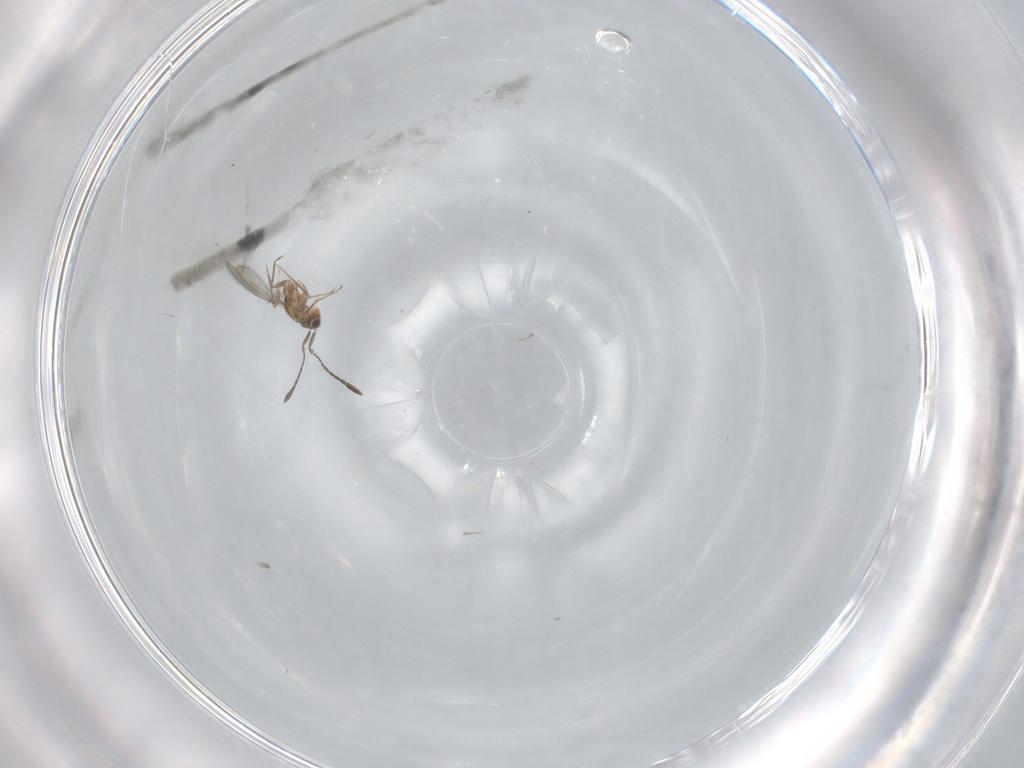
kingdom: Animalia
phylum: Arthropoda
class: Insecta
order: Hymenoptera
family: Mymaridae
